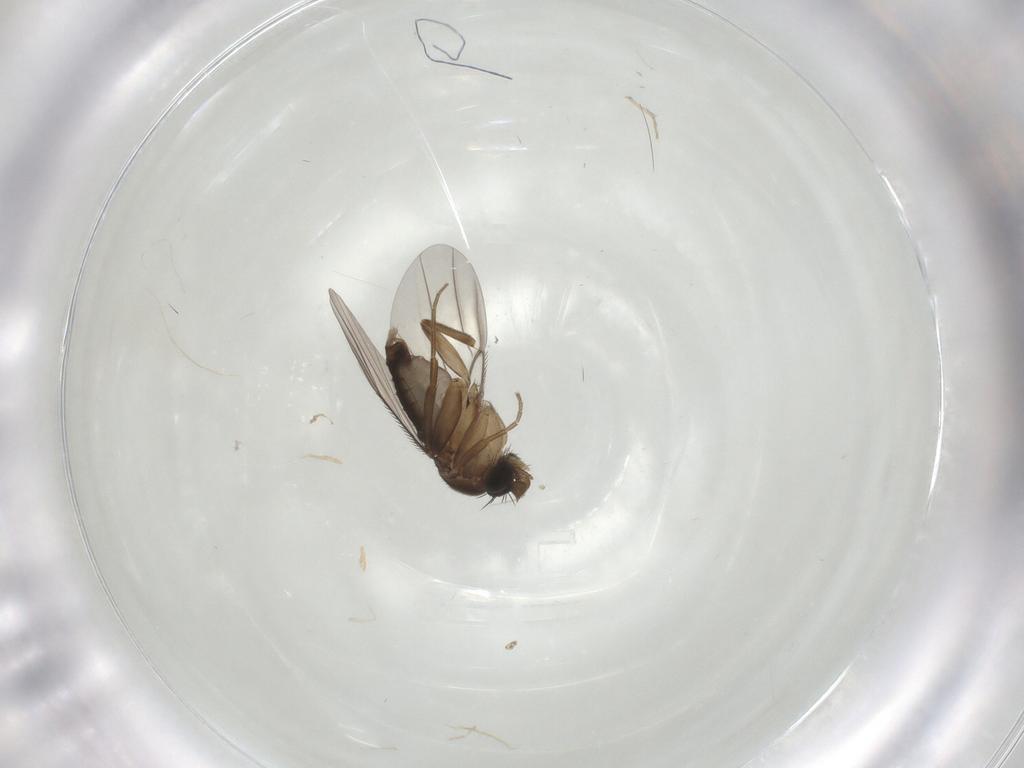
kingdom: Animalia
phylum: Arthropoda
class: Insecta
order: Diptera
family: Phoridae
